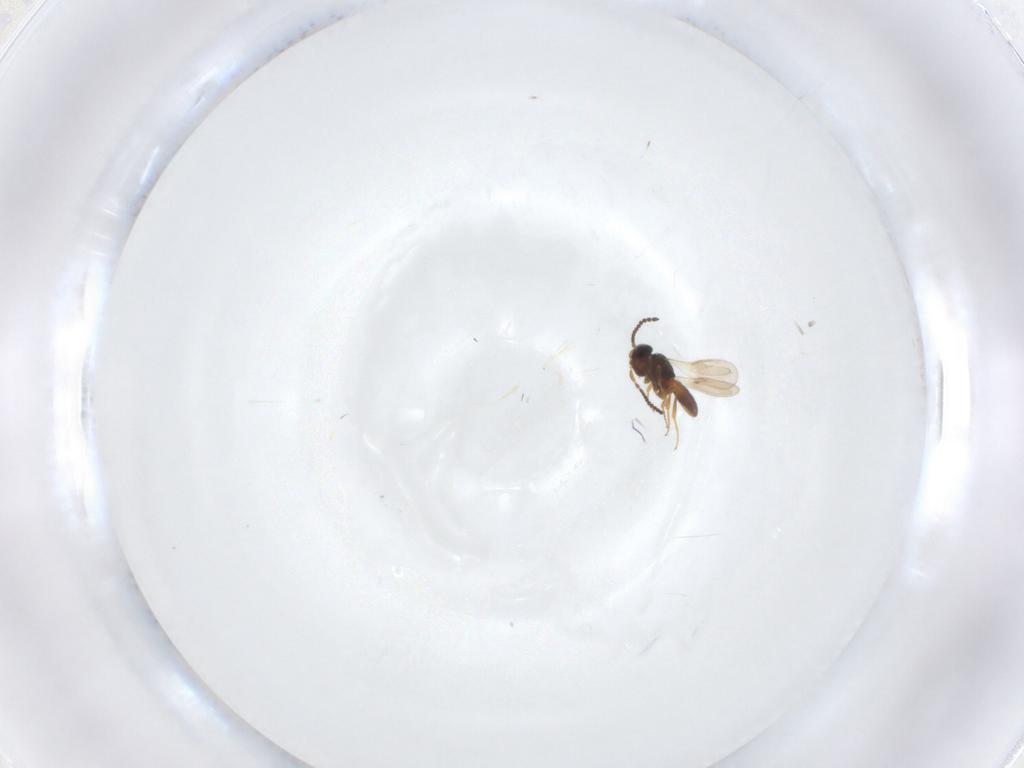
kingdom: Animalia
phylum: Arthropoda
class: Insecta
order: Hymenoptera
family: Scelionidae
